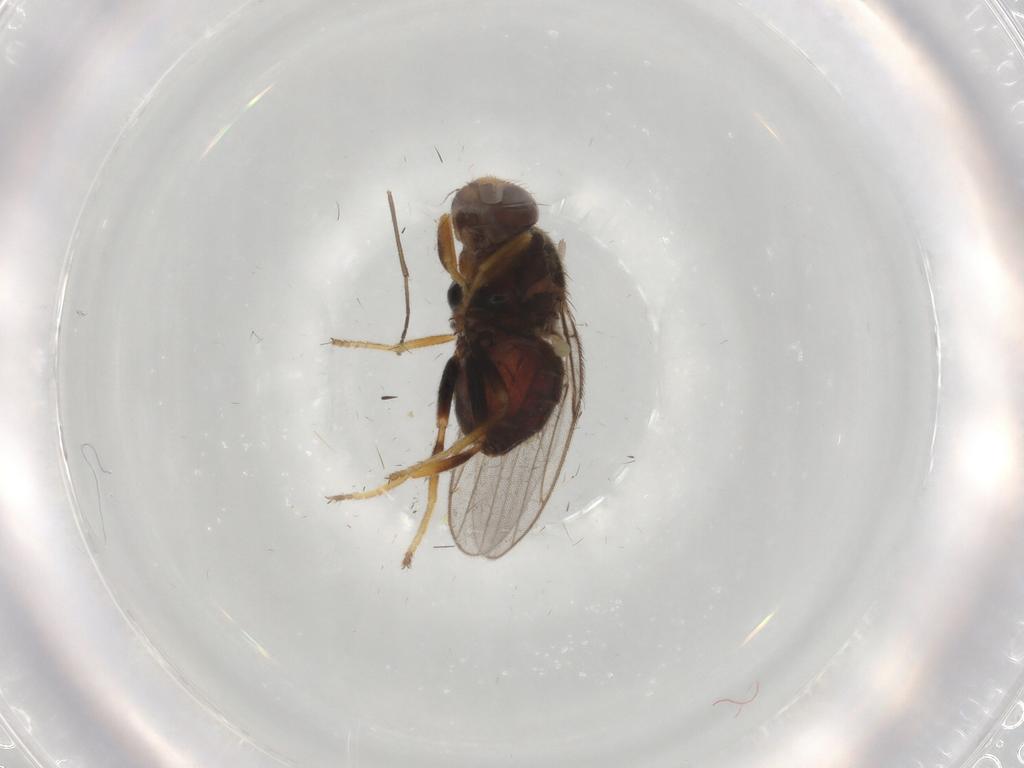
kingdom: Animalia
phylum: Arthropoda
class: Insecta
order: Diptera
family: Chloropidae
